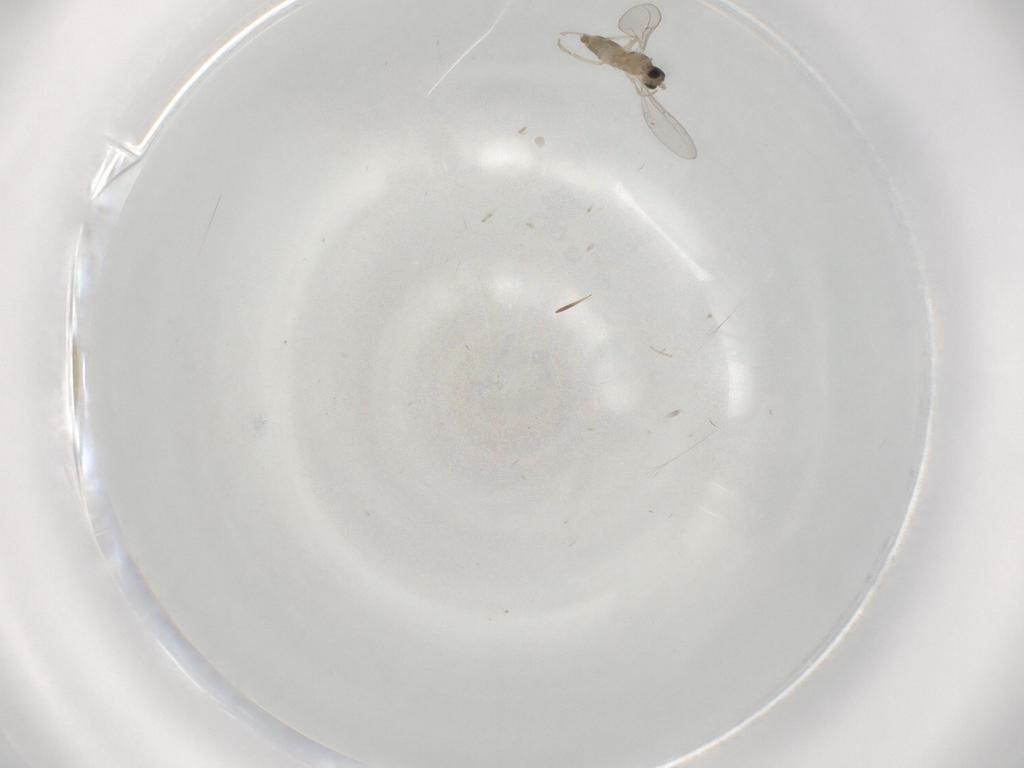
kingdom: Animalia
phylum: Arthropoda
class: Insecta
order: Diptera
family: Cecidomyiidae
